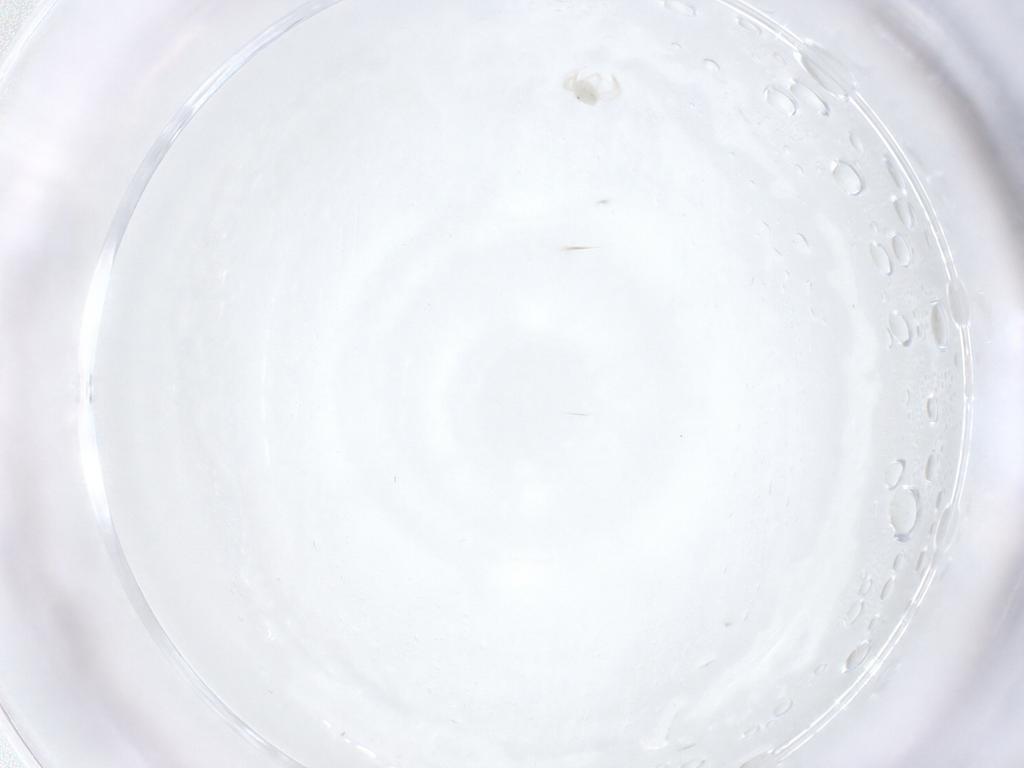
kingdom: Animalia
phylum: Arthropoda
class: Arachnida
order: Trombidiformes
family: Anystidae
